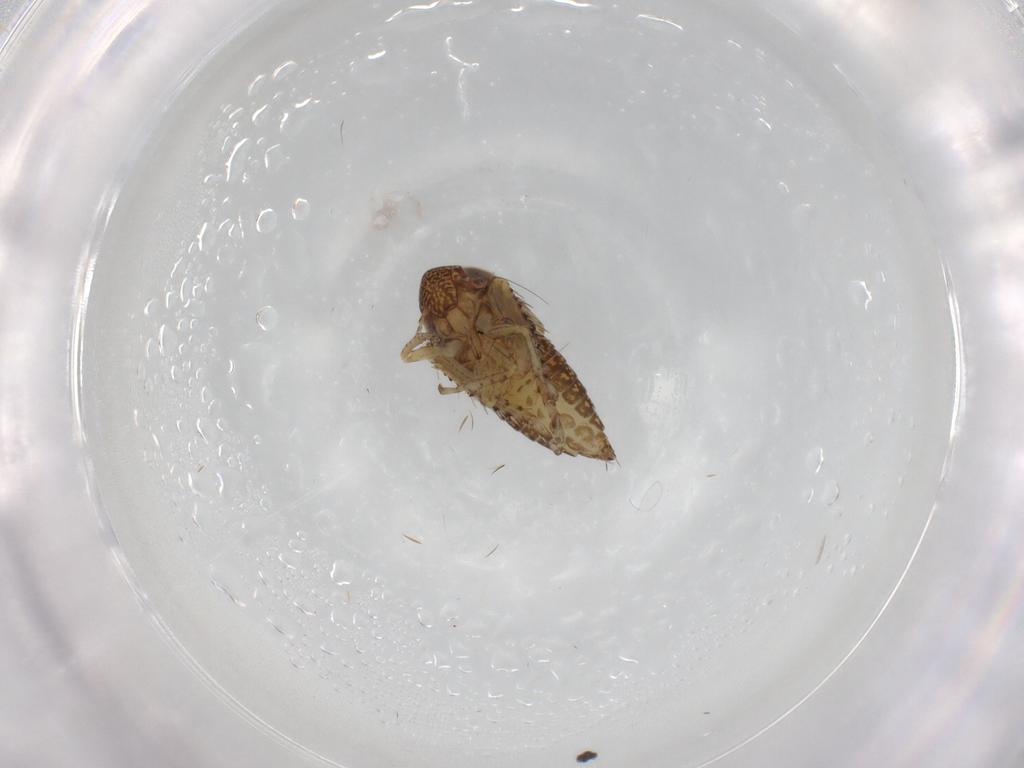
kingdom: Animalia
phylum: Arthropoda
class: Insecta
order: Hemiptera
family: Cicadellidae
